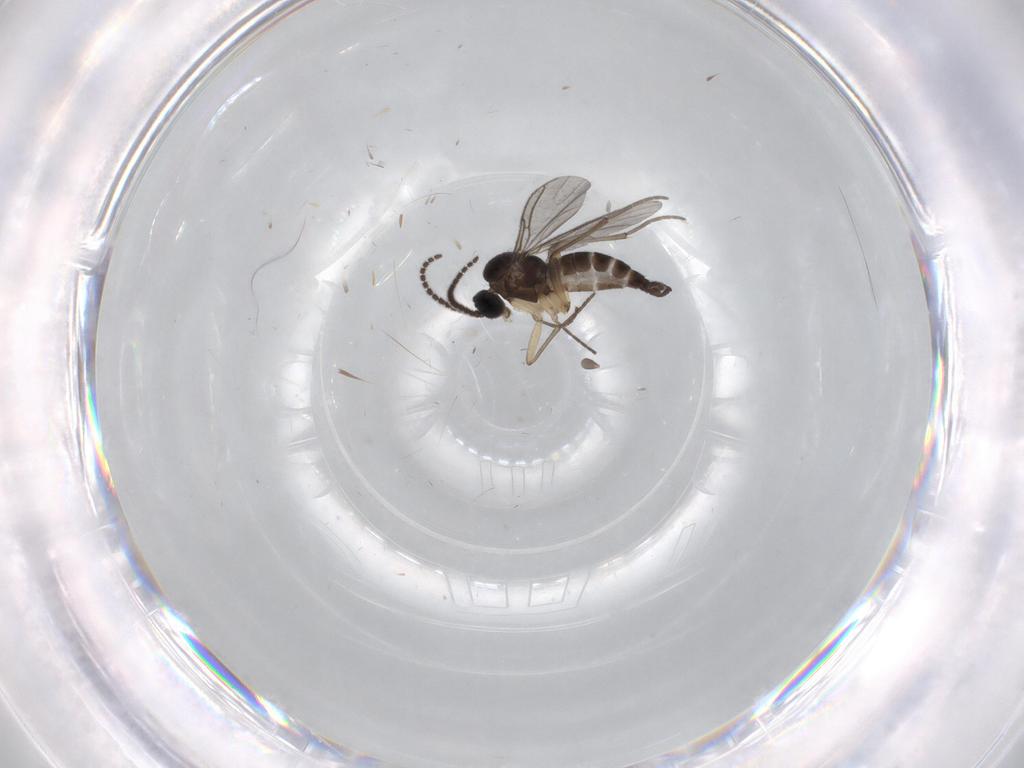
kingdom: Animalia
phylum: Arthropoda
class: Insecta
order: Diptera
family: Sciaridae
